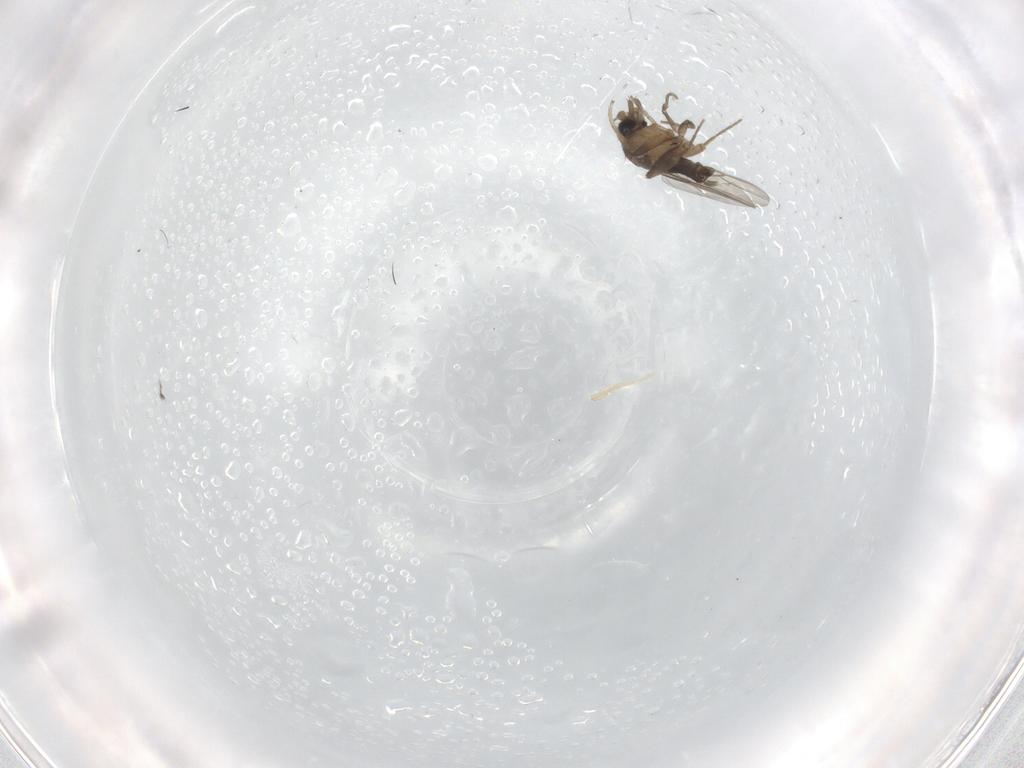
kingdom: Animalia
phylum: Arthropoda
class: Insecta
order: Diptera
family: Phoridae
